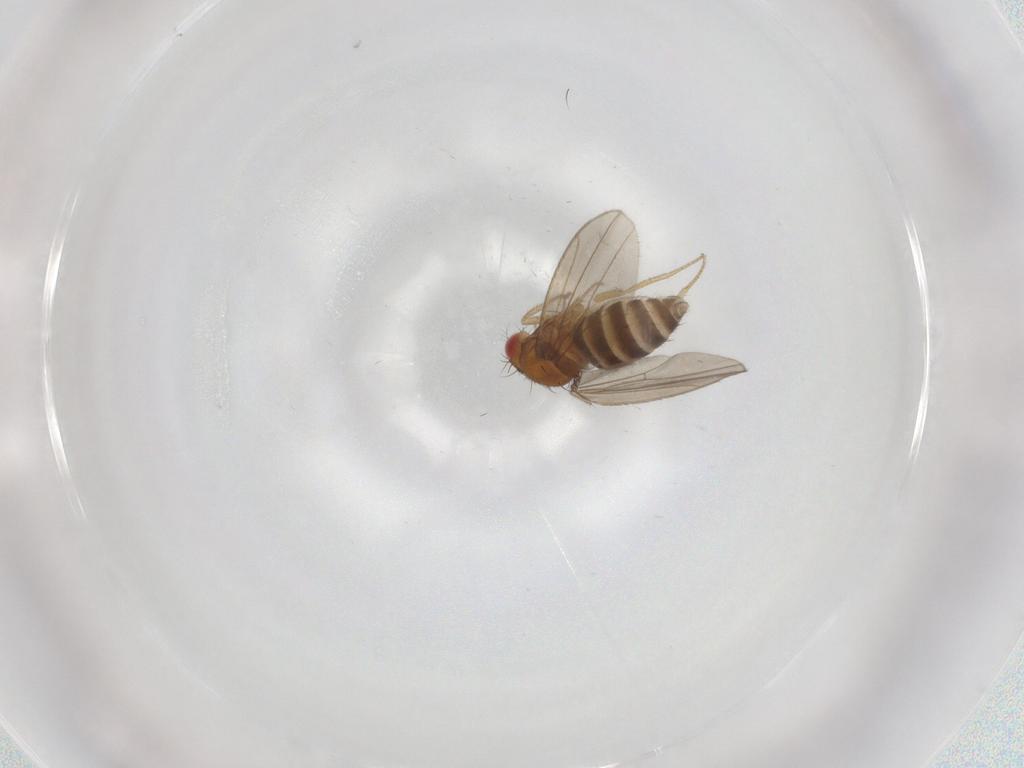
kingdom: Animalia
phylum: Arthropoda
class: Insecta
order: Diptera
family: Drosophilidae
